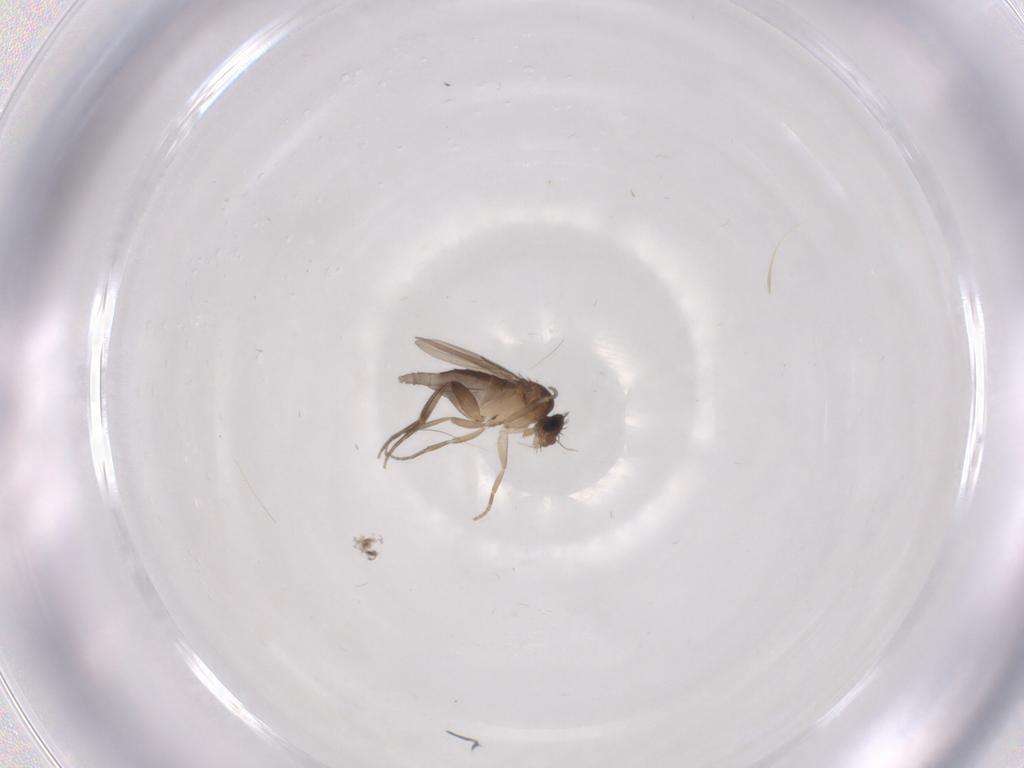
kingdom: Animalia
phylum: Arthropoda
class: Insecta
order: Diptera
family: Phoridae
